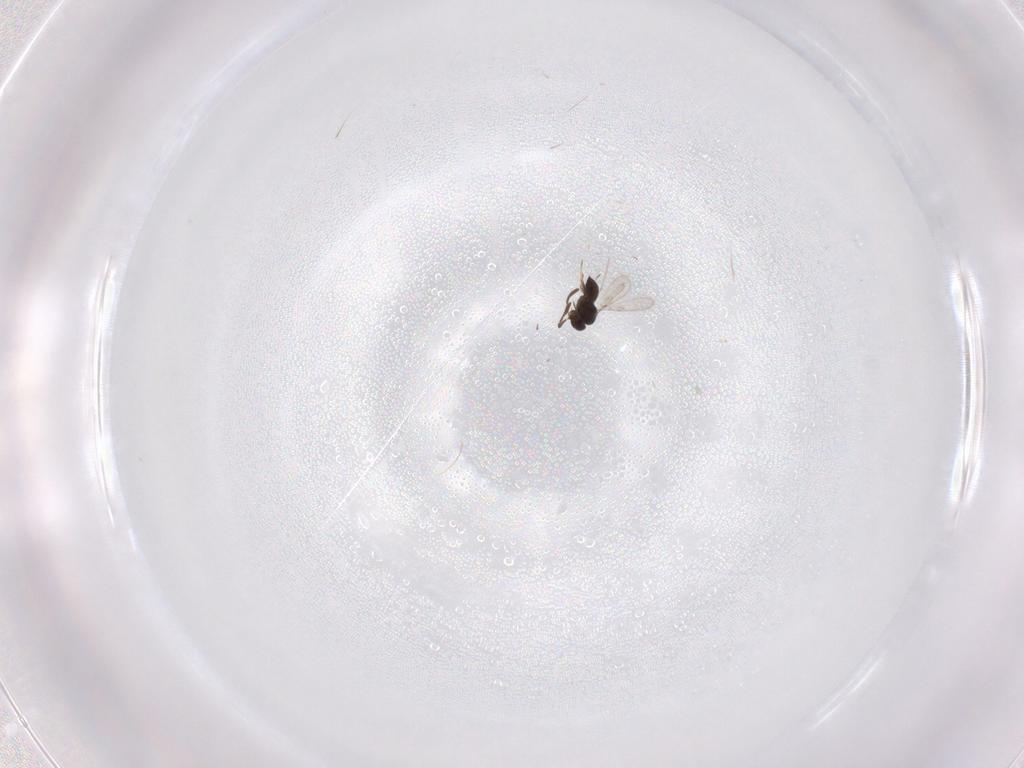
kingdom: Animalia
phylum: Arthropoda
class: Insecta
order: Hymenoptera
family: Scelionidae
